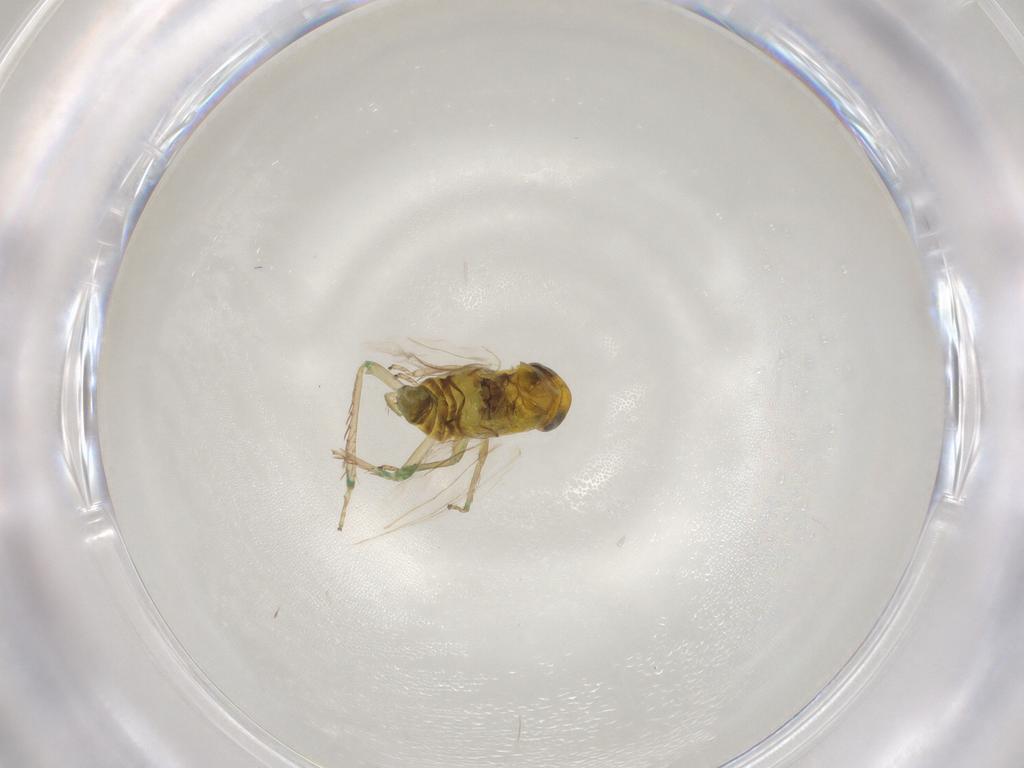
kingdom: Animalia
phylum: Arthropoda
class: Insecta
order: Hemiptera
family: Cicadellidae
